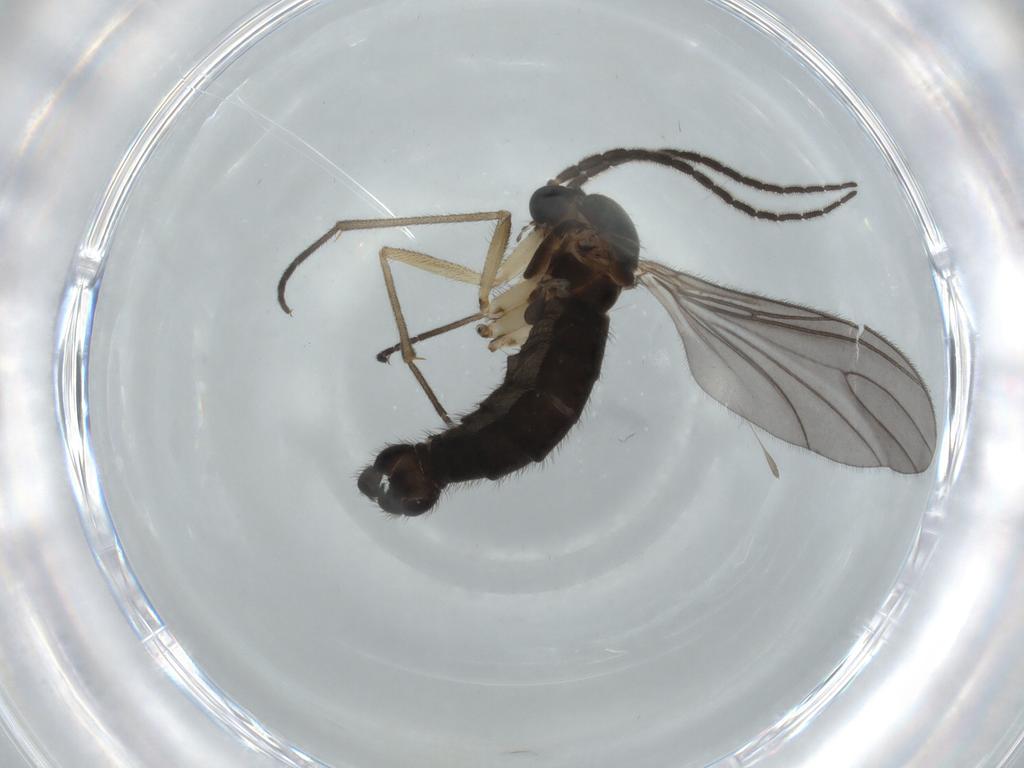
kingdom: Animalia
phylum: Arthropoda
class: Insecta
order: Diptera
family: Sciaridae
